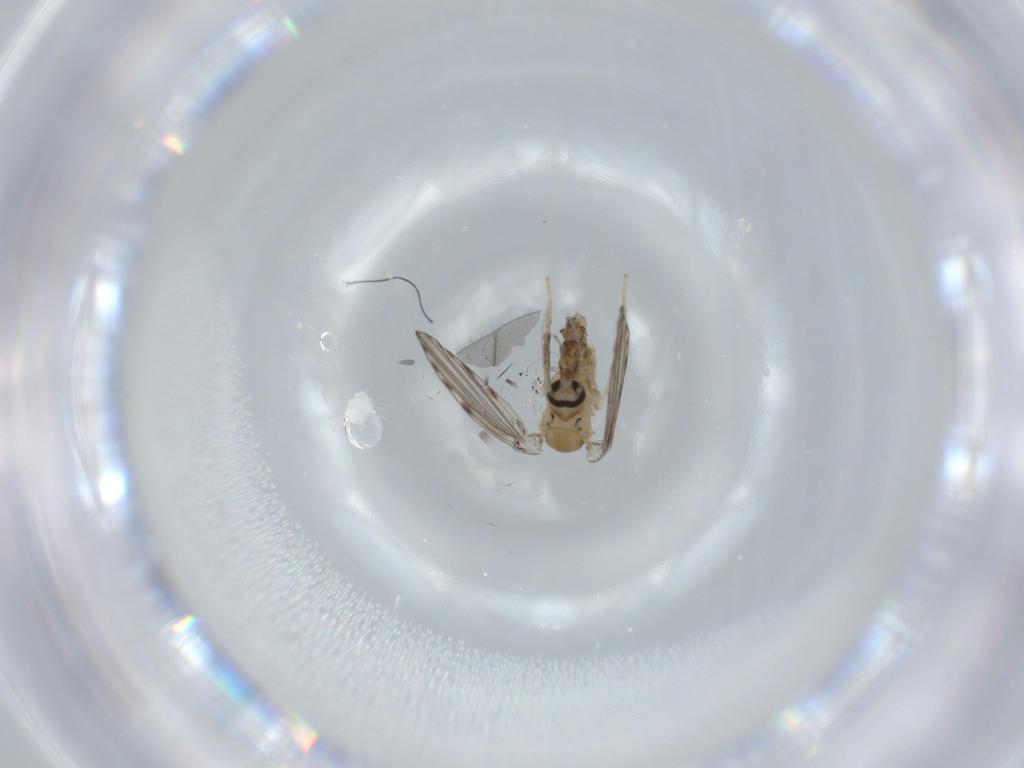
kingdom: Animalia
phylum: Arthropoda
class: Insecta
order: Diptera
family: Psychodidae
